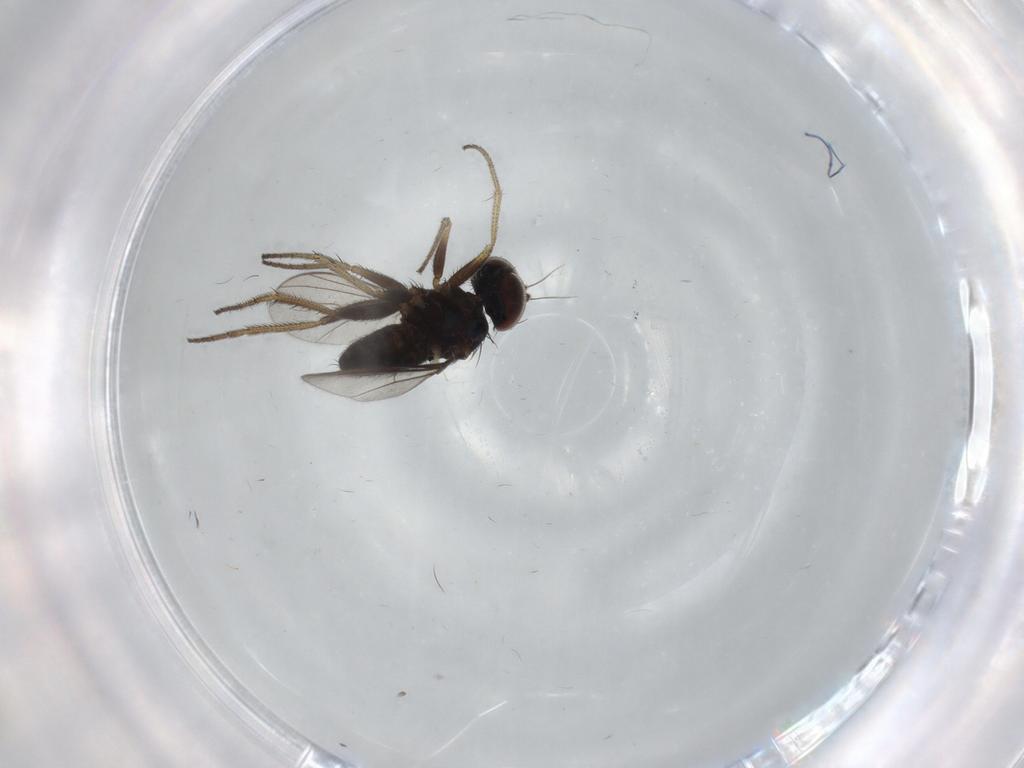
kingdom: Animalia
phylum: Arthropoda
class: Insecta
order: Diptera
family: Dolichopodidae
